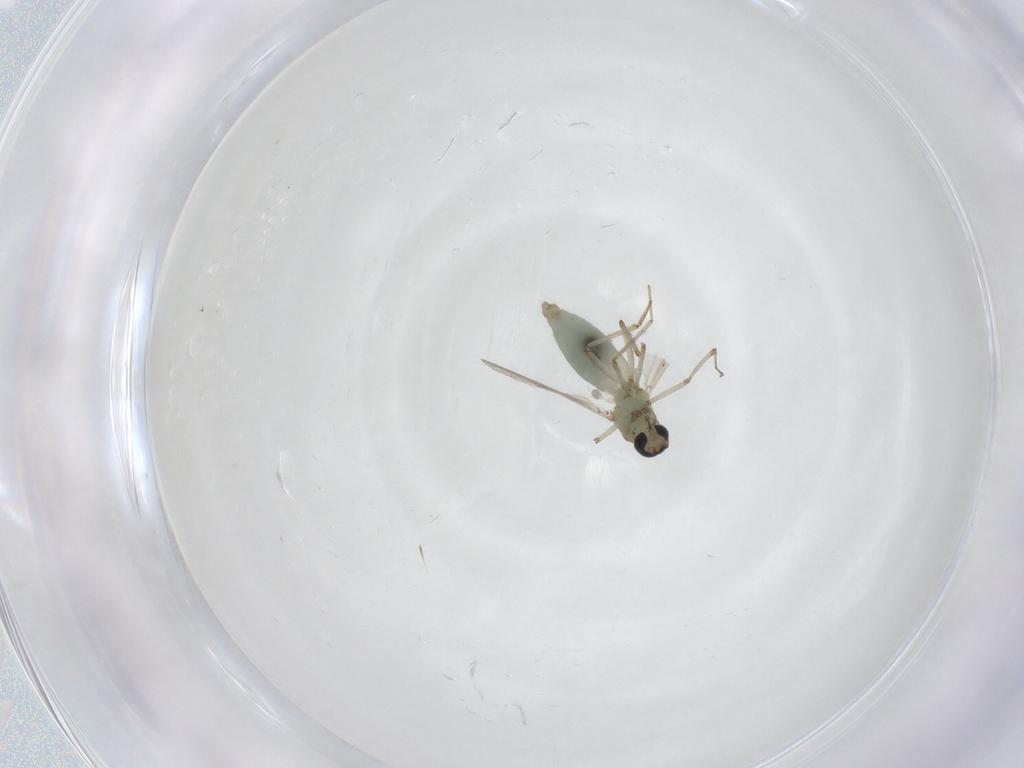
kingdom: Animalia
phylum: Arthropoda
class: Insecta
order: Diptera
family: Ceratopogonidae
